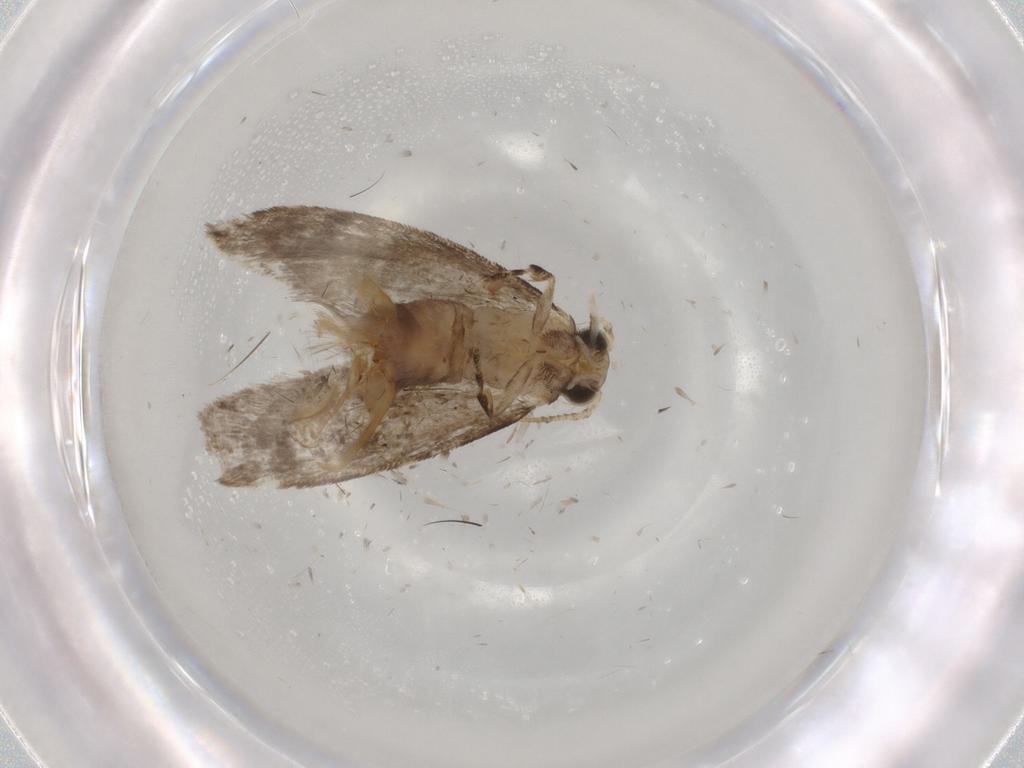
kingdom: Animalia
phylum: Arthropoda
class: Insecta
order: Lepidoptera
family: Tineidae
